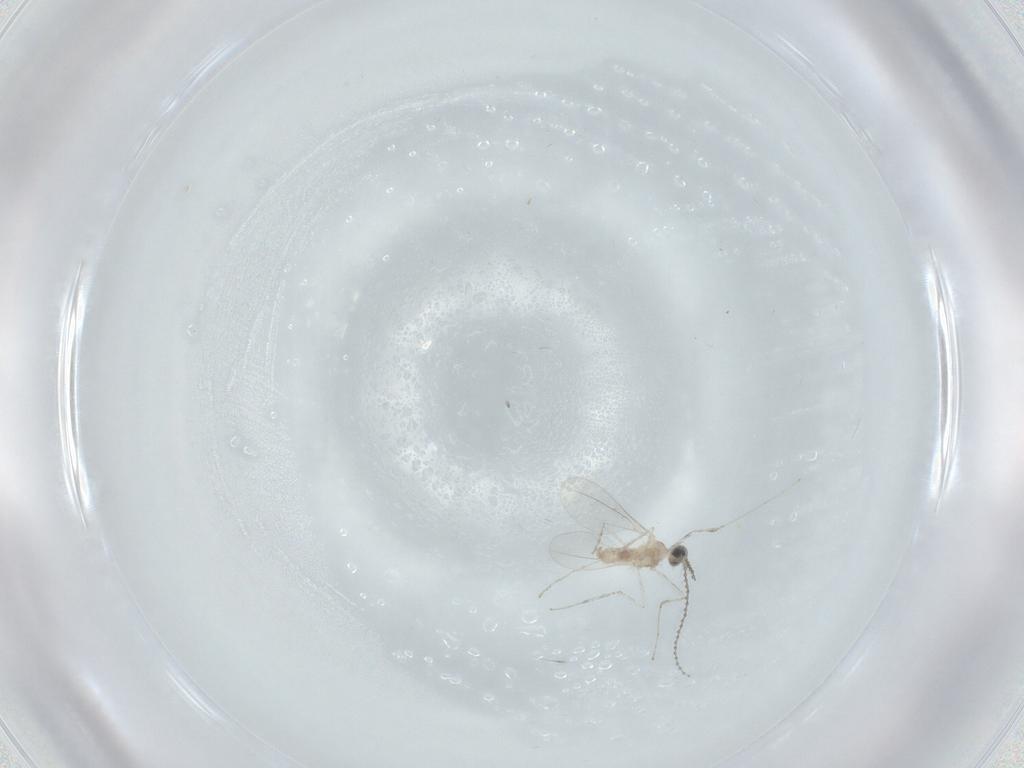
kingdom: Animalia
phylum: Arthropoda
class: Insecta
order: Diptera
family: Cecidomyiidae
